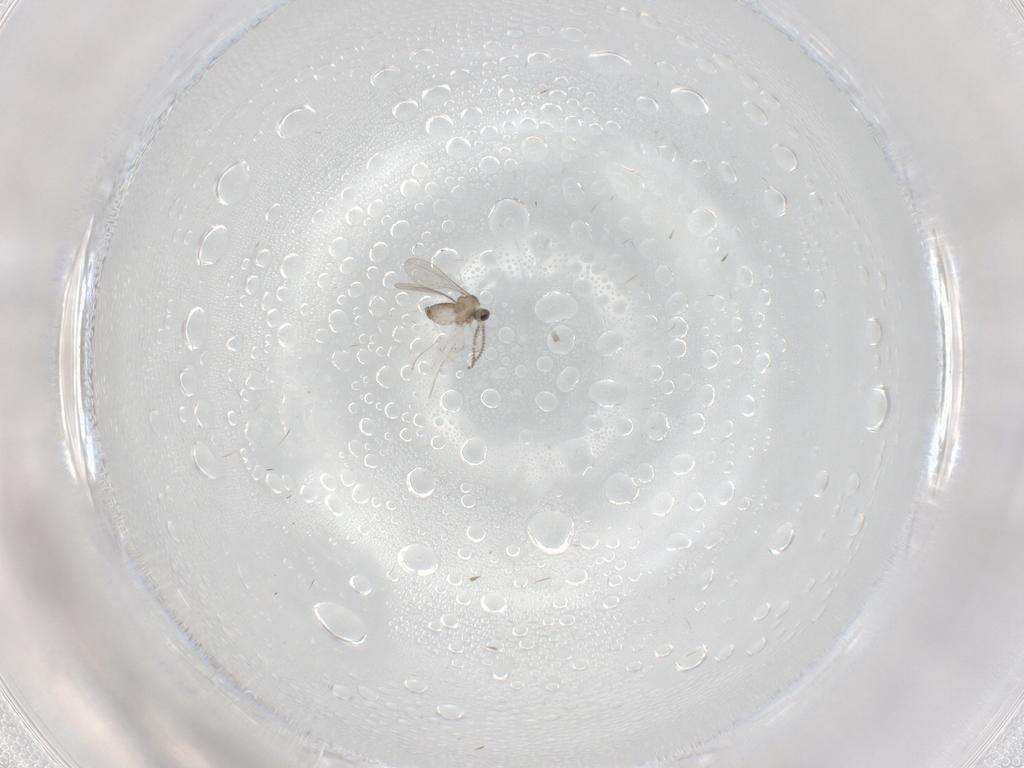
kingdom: Animalia
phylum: Arthropoda
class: Insecta
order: Diptera
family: Cecidomyiidae
